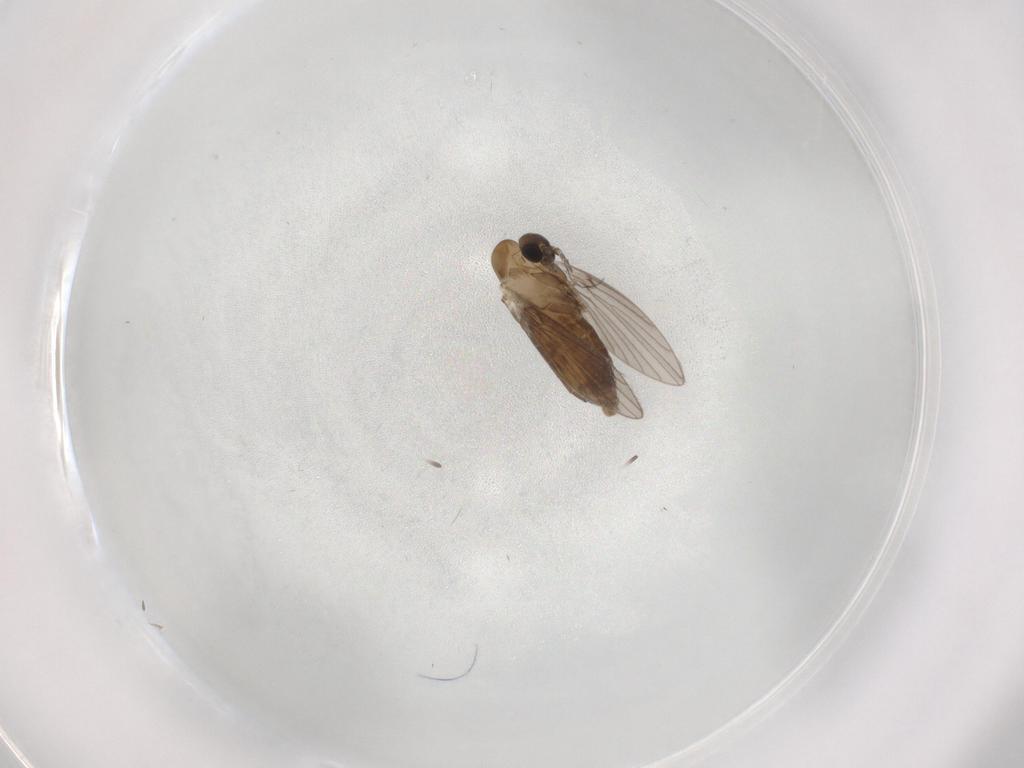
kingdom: Animalia
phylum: Arthropoda
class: Insecta
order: Diptera
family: Psychodidae
